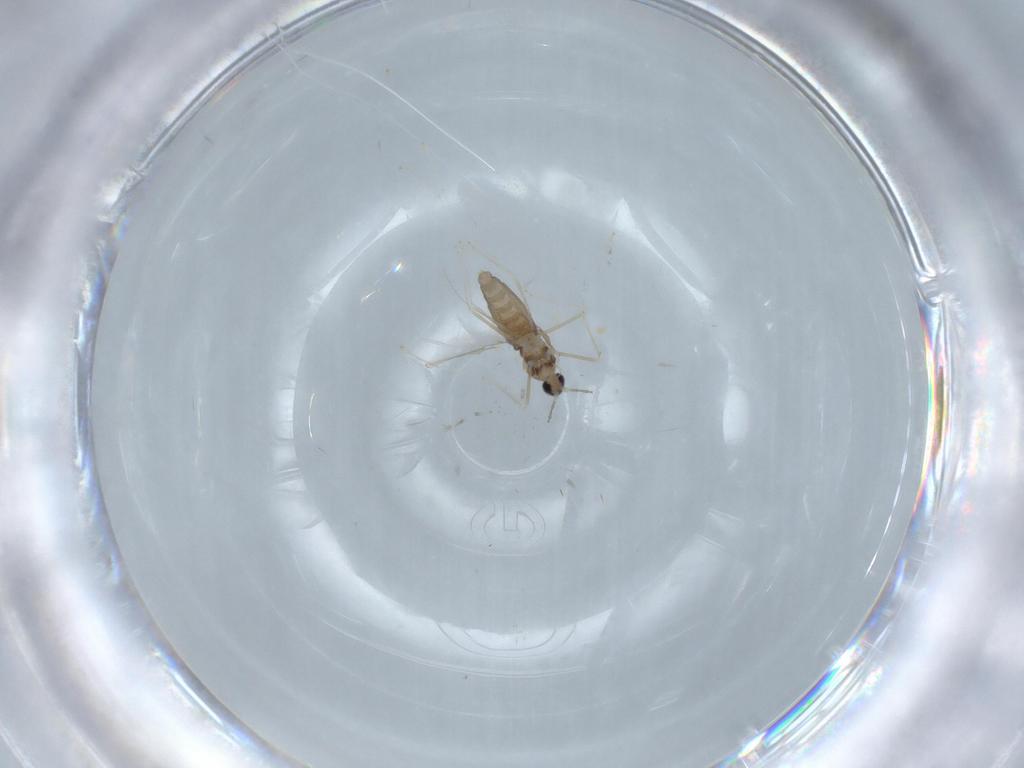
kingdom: Animalia
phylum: Arthropoda
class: Insecta
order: Diptera
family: Anthomyiidae
